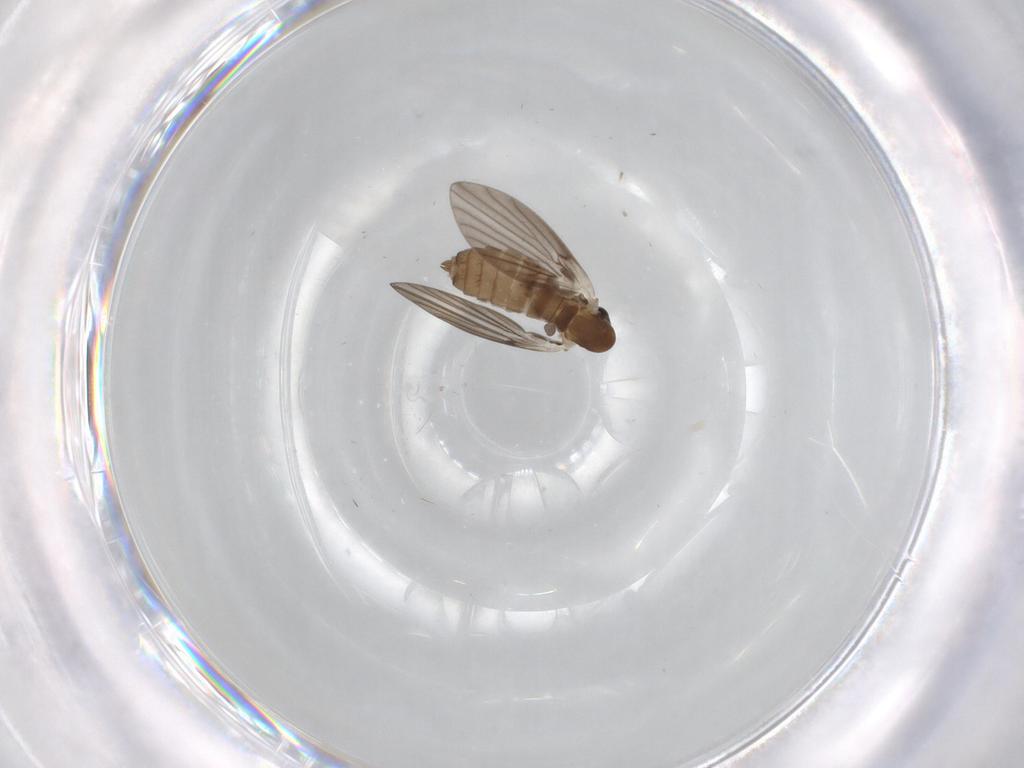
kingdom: Animalia
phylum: Arthropoda
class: Insecta
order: Diptera
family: Psychodidae
